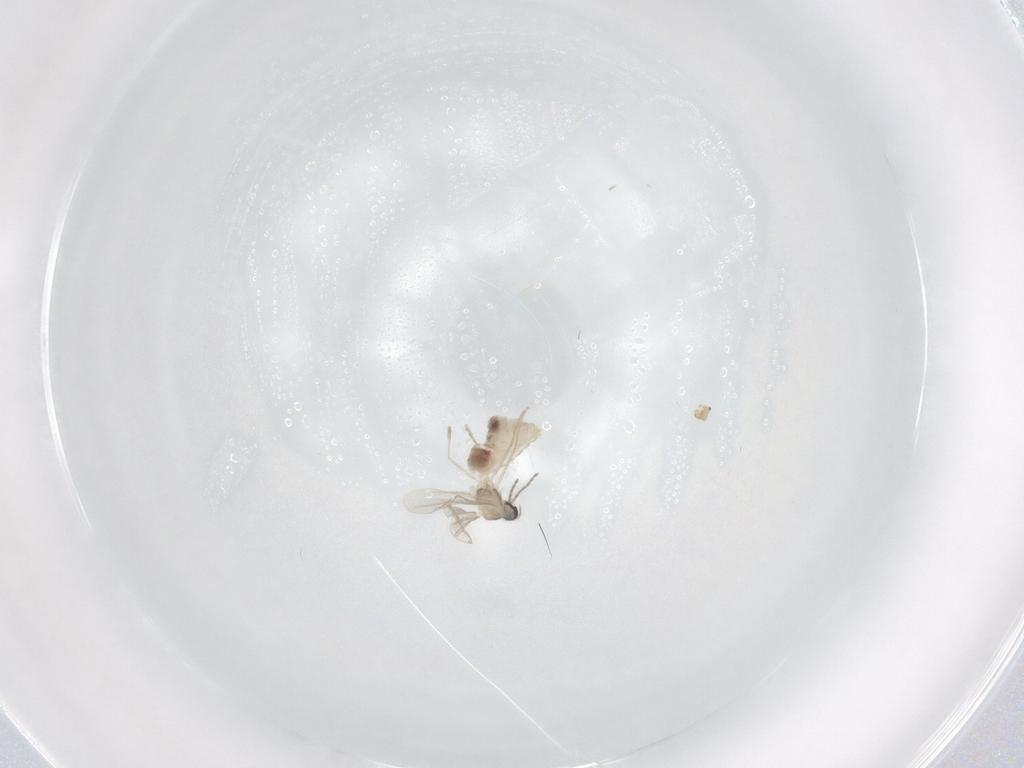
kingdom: Animalia
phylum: Arthropoda
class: Insecta
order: Diptera
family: Cecidomyiidae
